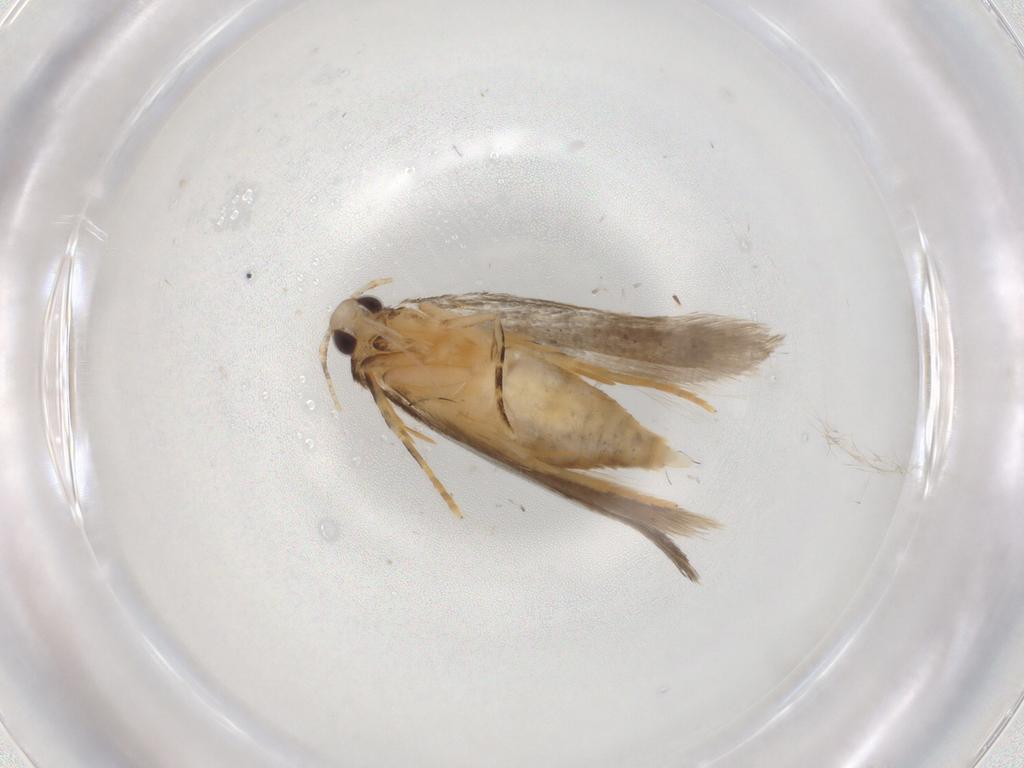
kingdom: Animalia
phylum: Arthropoda
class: Insecta
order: Lepidoptera
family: Autostichidae
